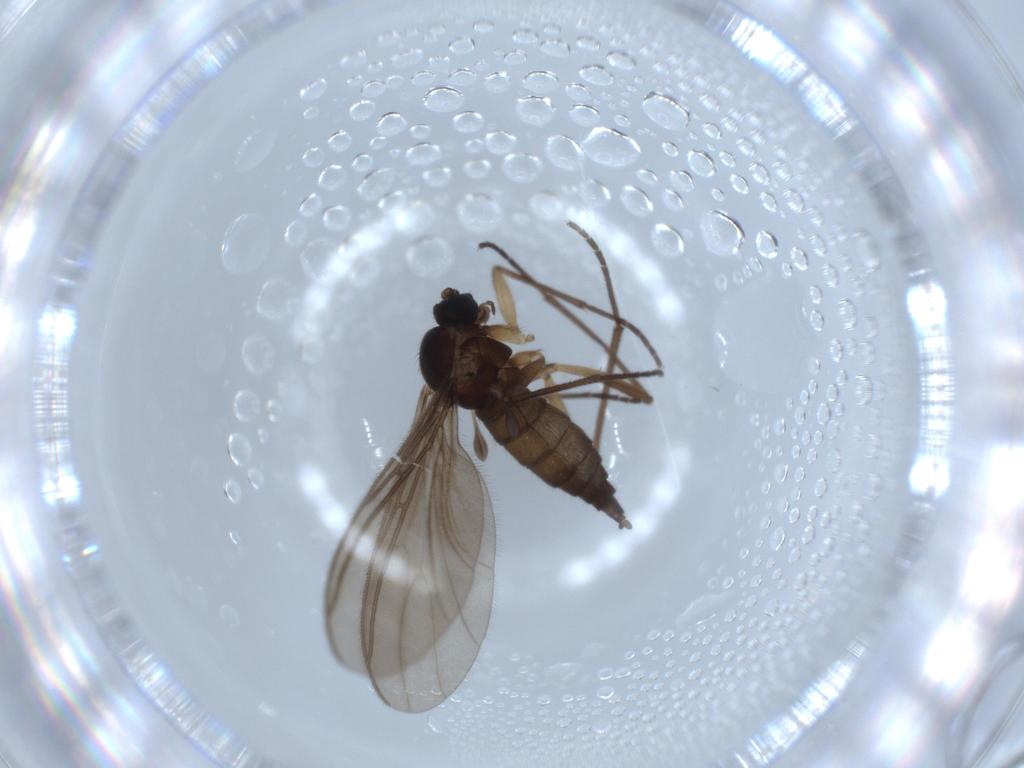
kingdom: Animalia
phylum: Arthropoda
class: Insecta
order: Diptera
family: Sciaridae
